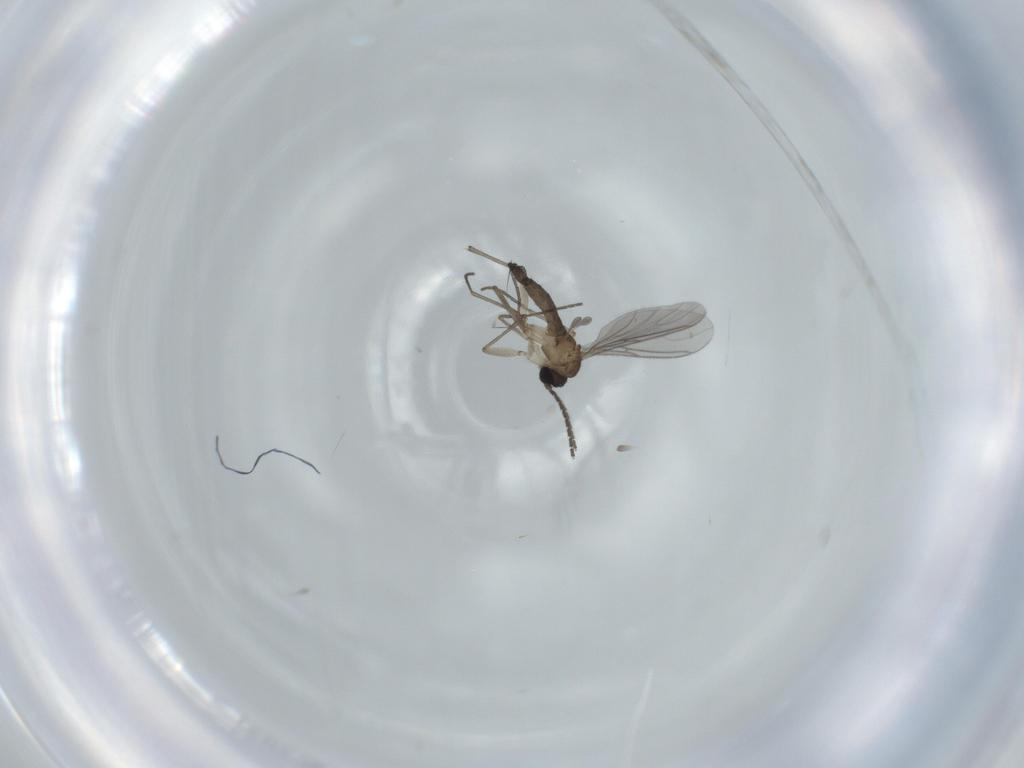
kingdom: Animalia
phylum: Arthropoda
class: Insecta
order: Diptera
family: Sciaridae
